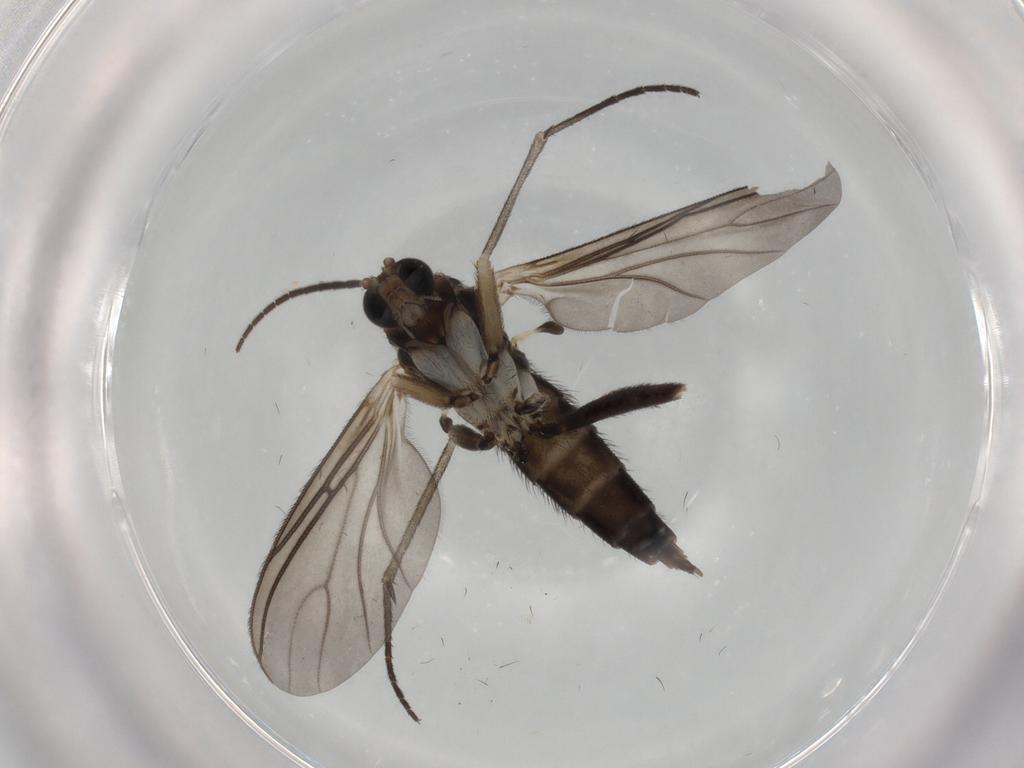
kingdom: Animalia
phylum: Arthropoda
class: Insecta
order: Diptera
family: Sciaridae
